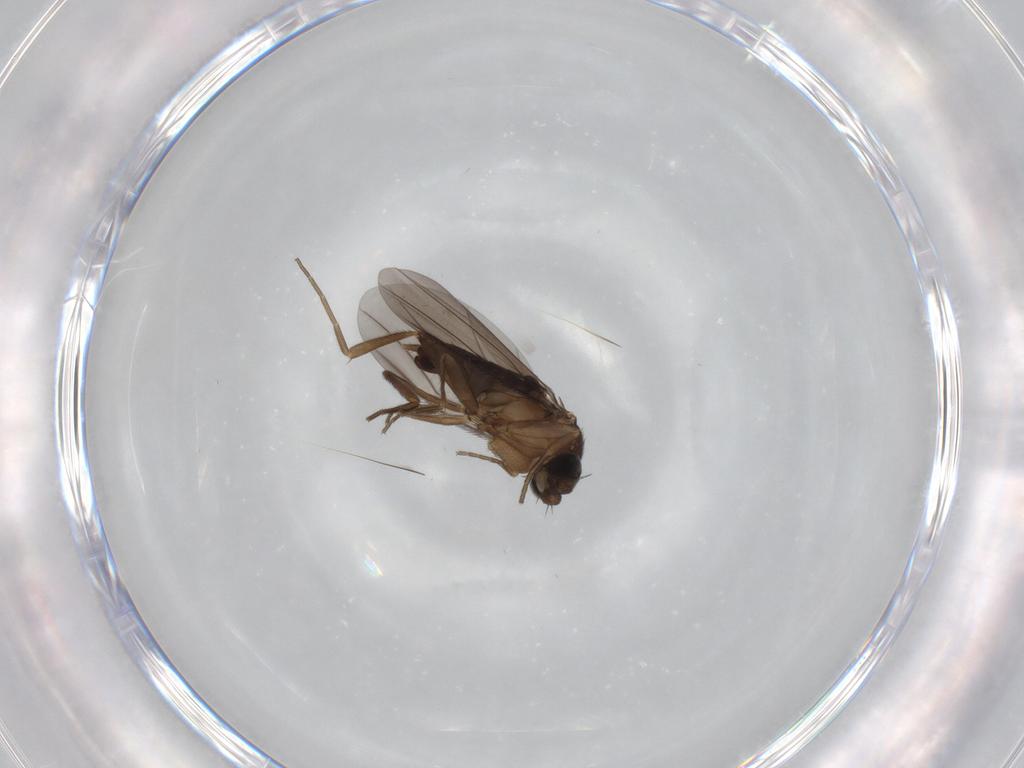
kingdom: Animalia
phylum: Arthropoda
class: Insecta
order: Diptera
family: Phoridae
